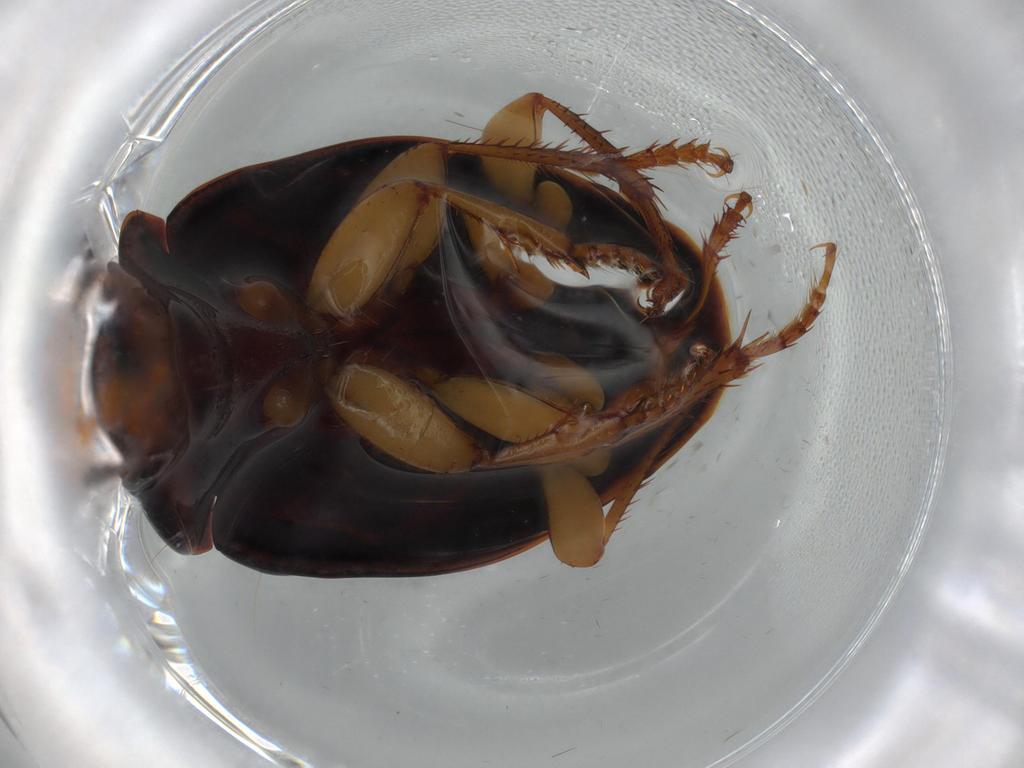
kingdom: Animalia
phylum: Arthropoda
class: Insecta
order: Coleoptera
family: Carabidae
